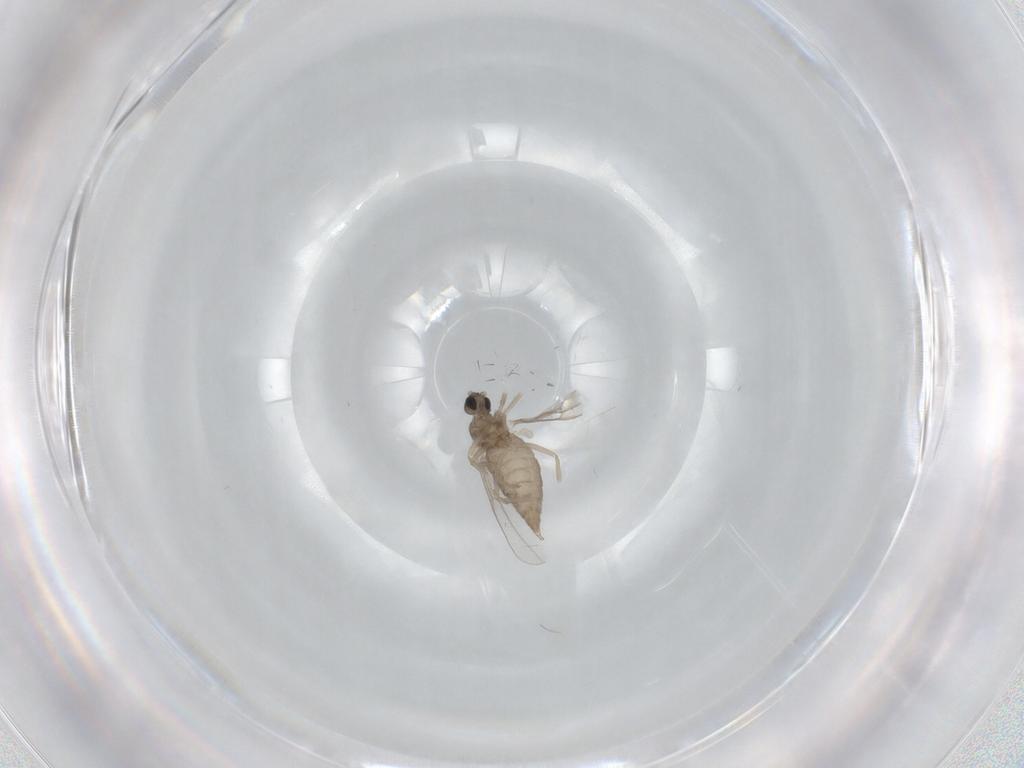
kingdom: Animalia
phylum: Arthropoda
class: Insecta
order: Diptera
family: Cecidomyiidae
